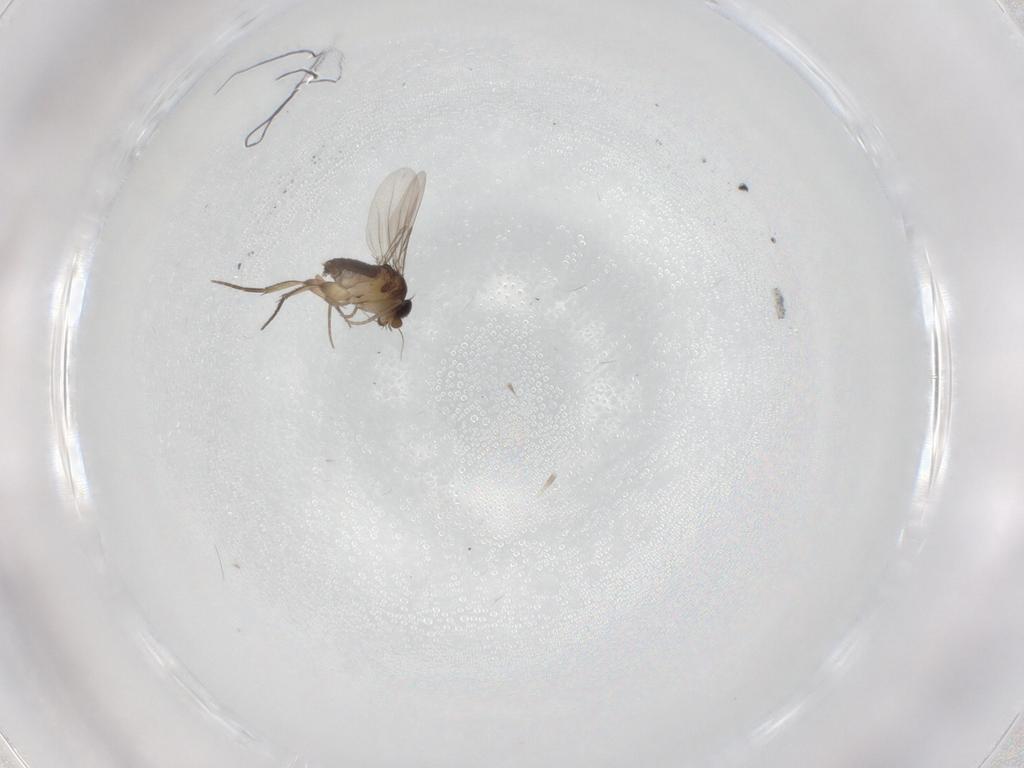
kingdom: Animalia
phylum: Arthropoda
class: Insecta
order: Diptera
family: Phoridae
